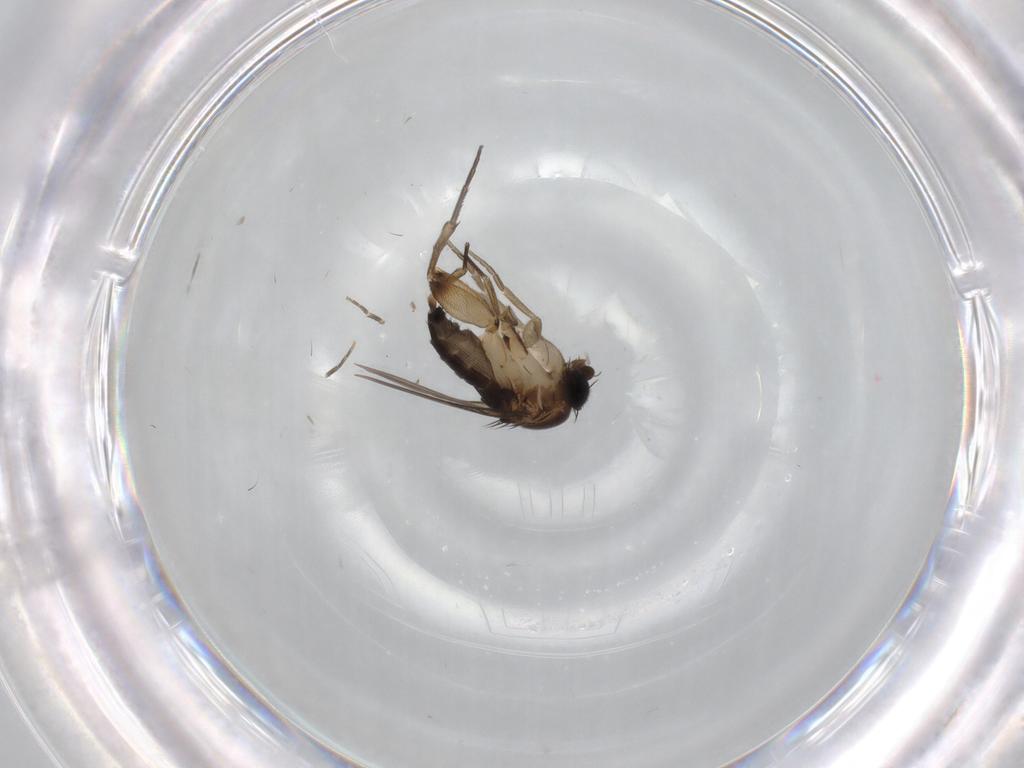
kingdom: Animalia
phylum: Arthropoda
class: Insecta
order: Diptera
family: Phoridae
